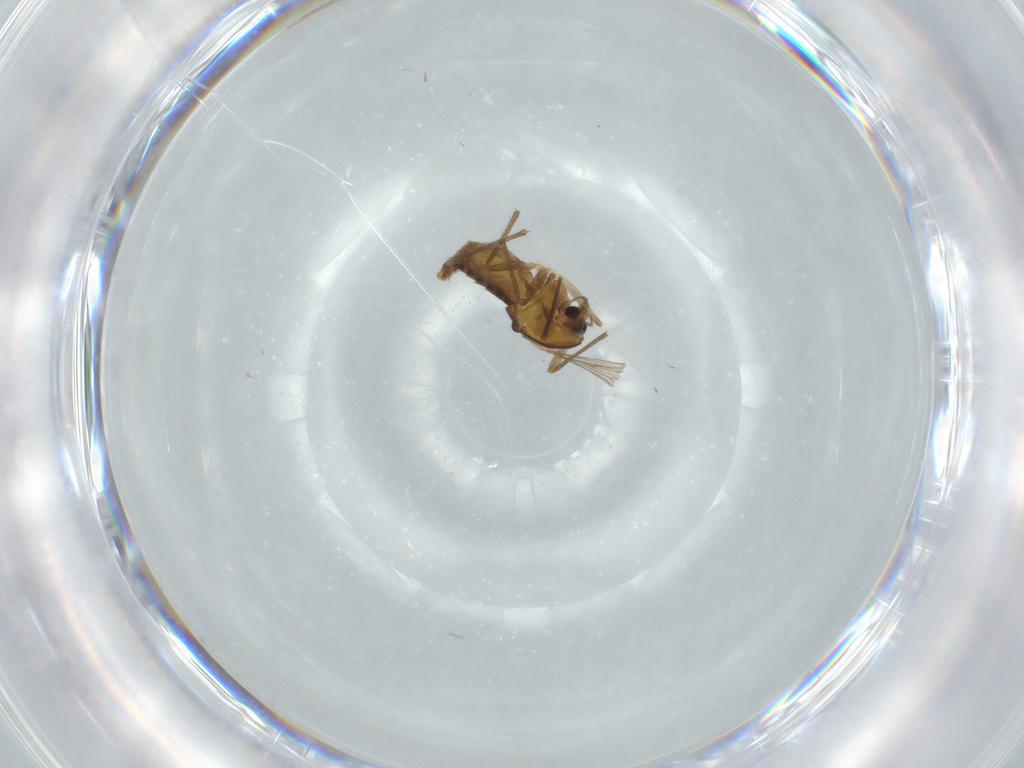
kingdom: Animalia
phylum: Arthropoda
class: Insecta
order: Diptera
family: Chironomidae
